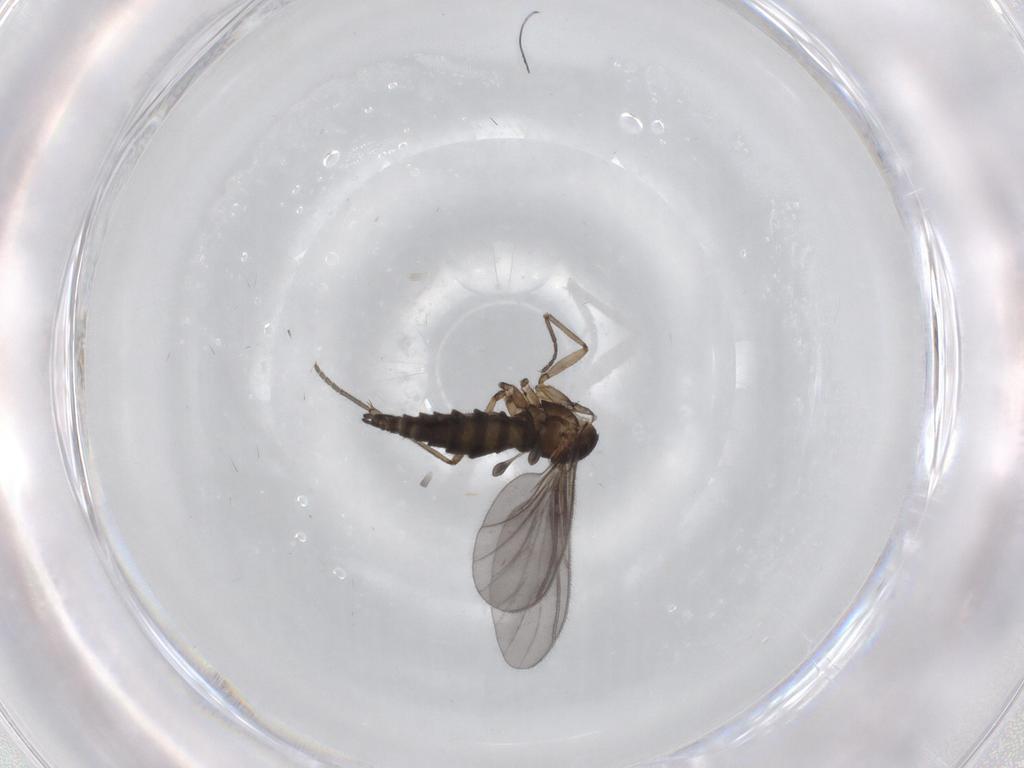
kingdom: Animalia
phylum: Arthropoda
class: Insecta
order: Diptera
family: Sciaridae
